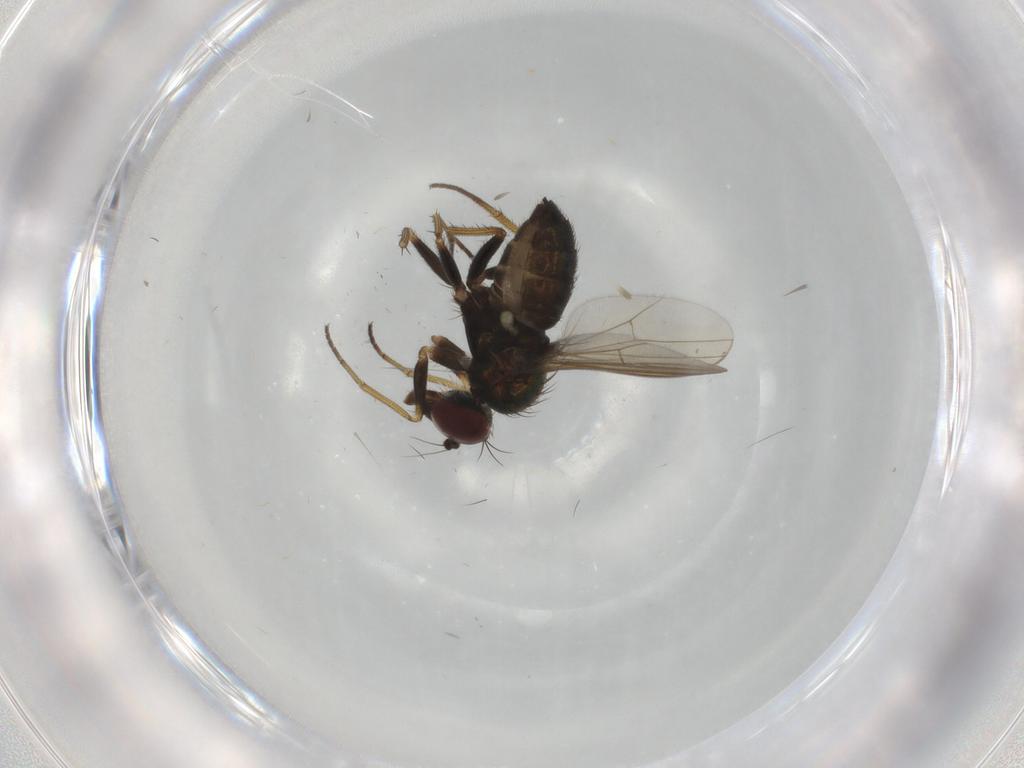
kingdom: Animalia
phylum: Arthropoda
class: Insecta
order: Diptera
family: Dolichopodidae
